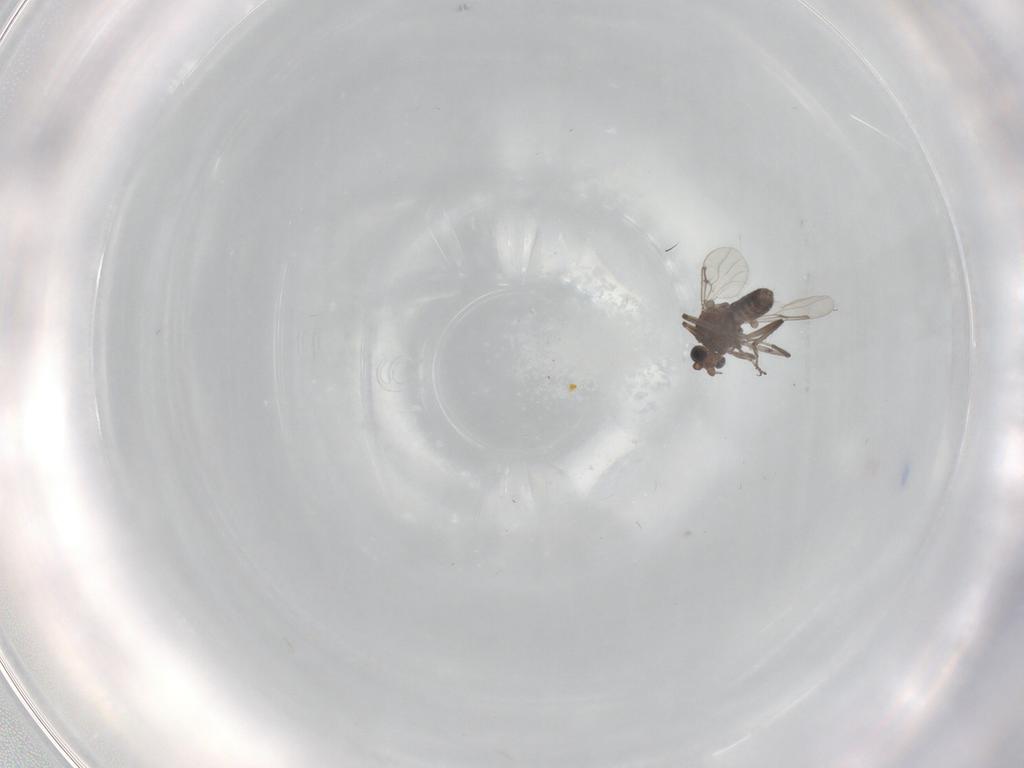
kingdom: Animalia
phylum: Arthropoda
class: Insecta
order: Diptera
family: Ceratopogonidae
